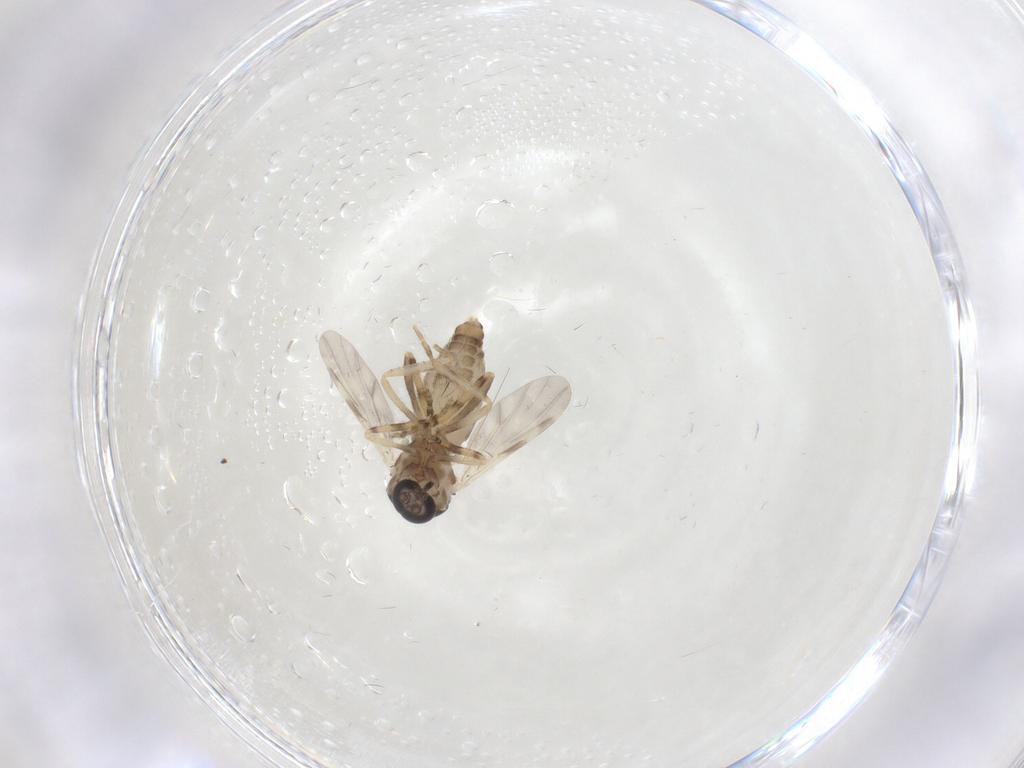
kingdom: Animalia
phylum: Arthropoda
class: Insecta
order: Diptera
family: Ceratopogonidae
